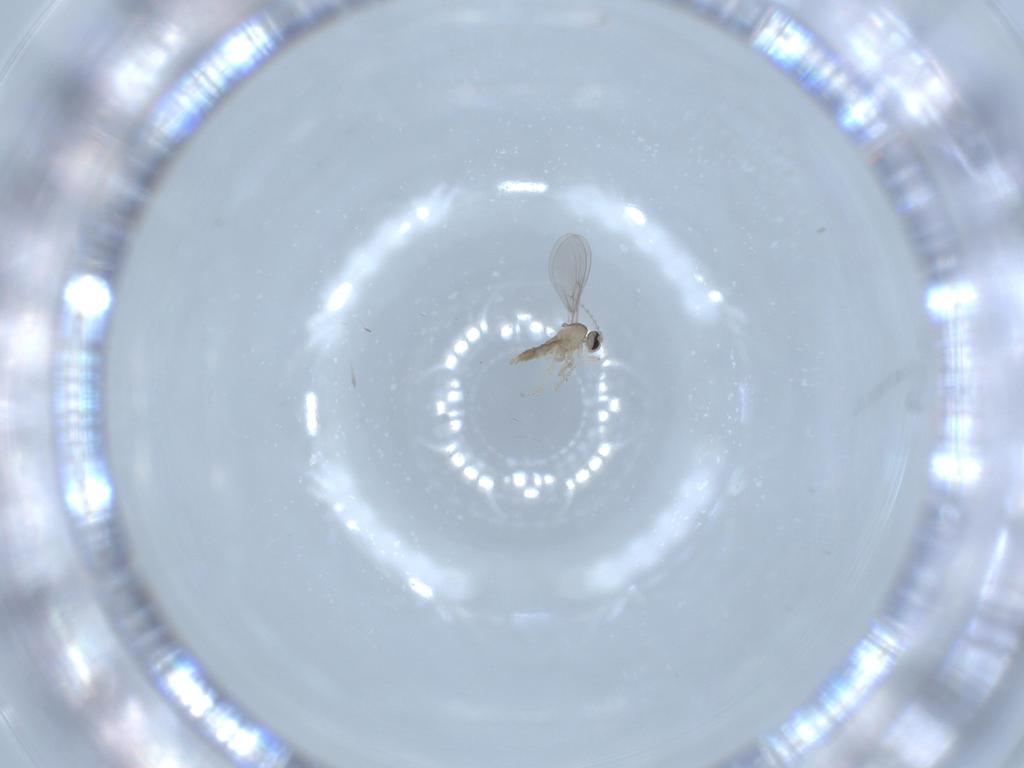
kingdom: Animalia
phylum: Arthropoda
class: Insecta
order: Diptera
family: Cecidomyiidae
